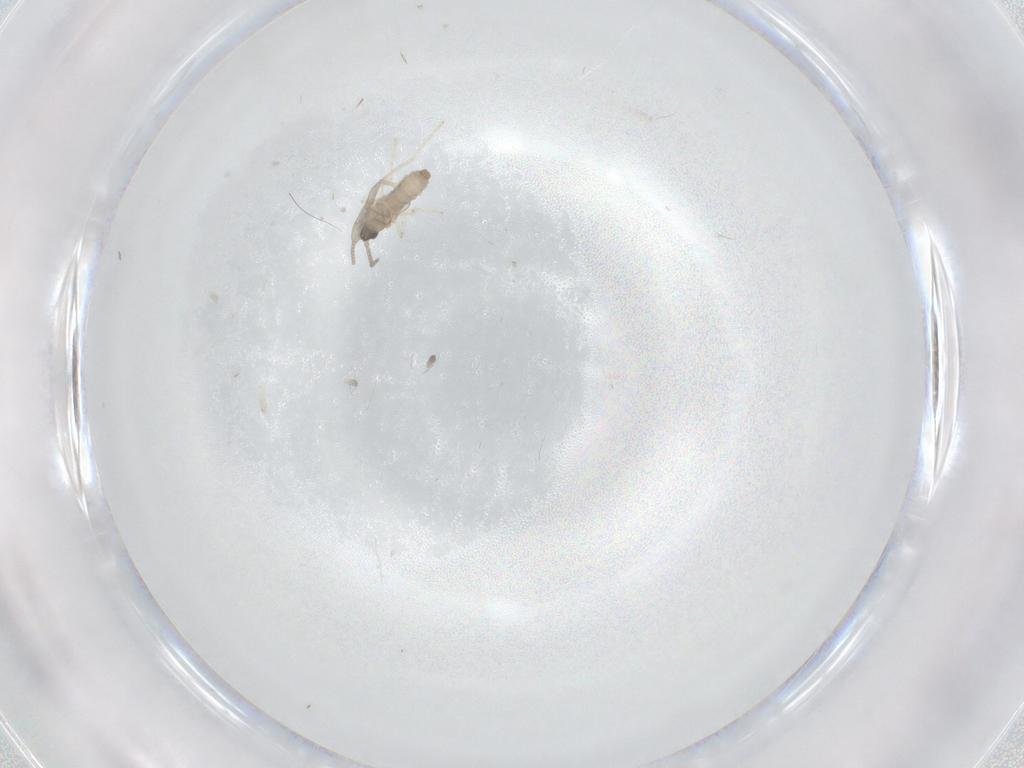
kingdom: Animalia
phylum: Arthropoda
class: Insecta
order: Diptera
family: Cecidomyiidae
